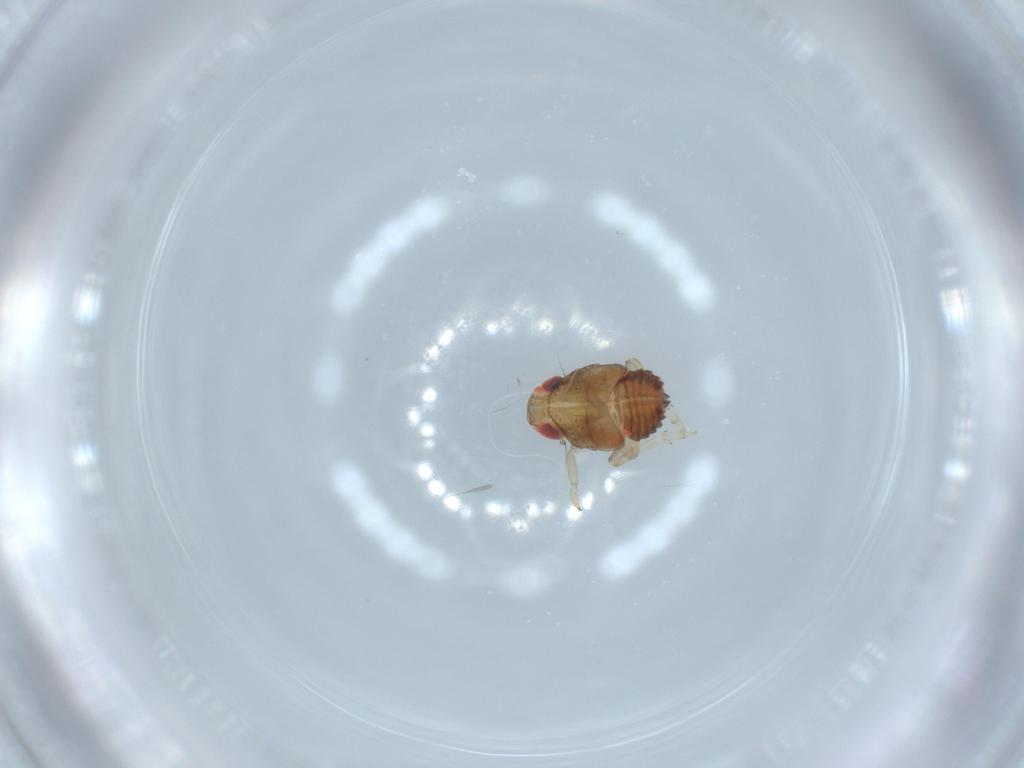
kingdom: Animalia
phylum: Arthropoda
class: Insecta
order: Hemiptera
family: Issidae
